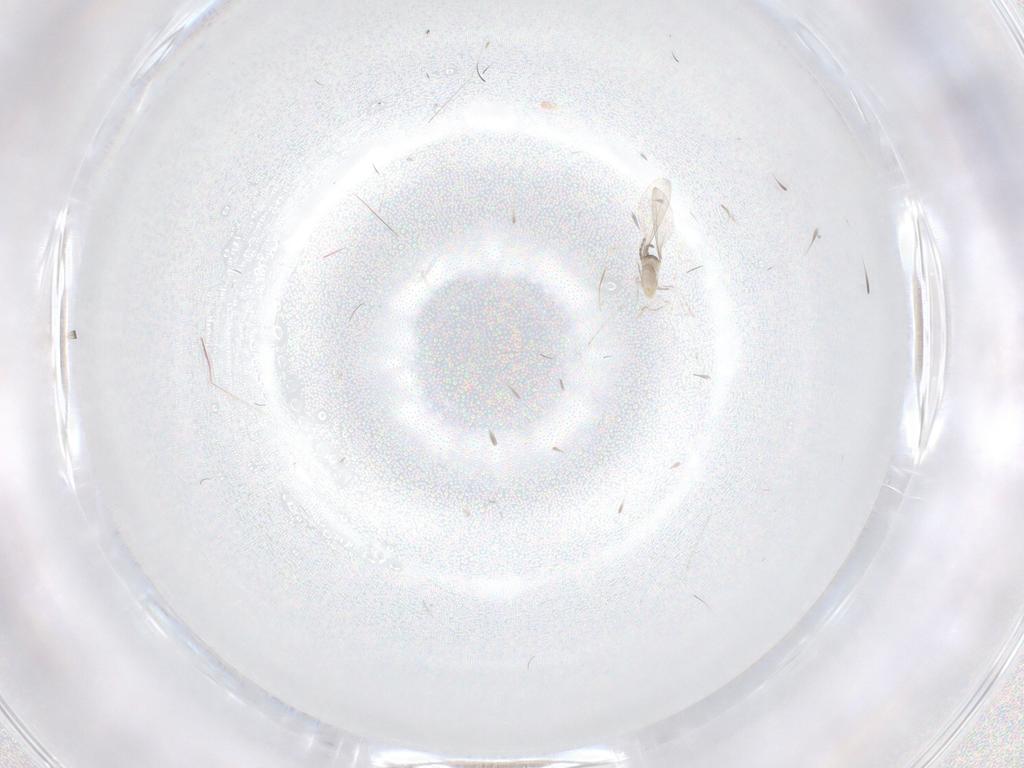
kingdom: Animalia
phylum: Arthropoda
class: Insecta
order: Diptera
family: Cecidomyiidae
